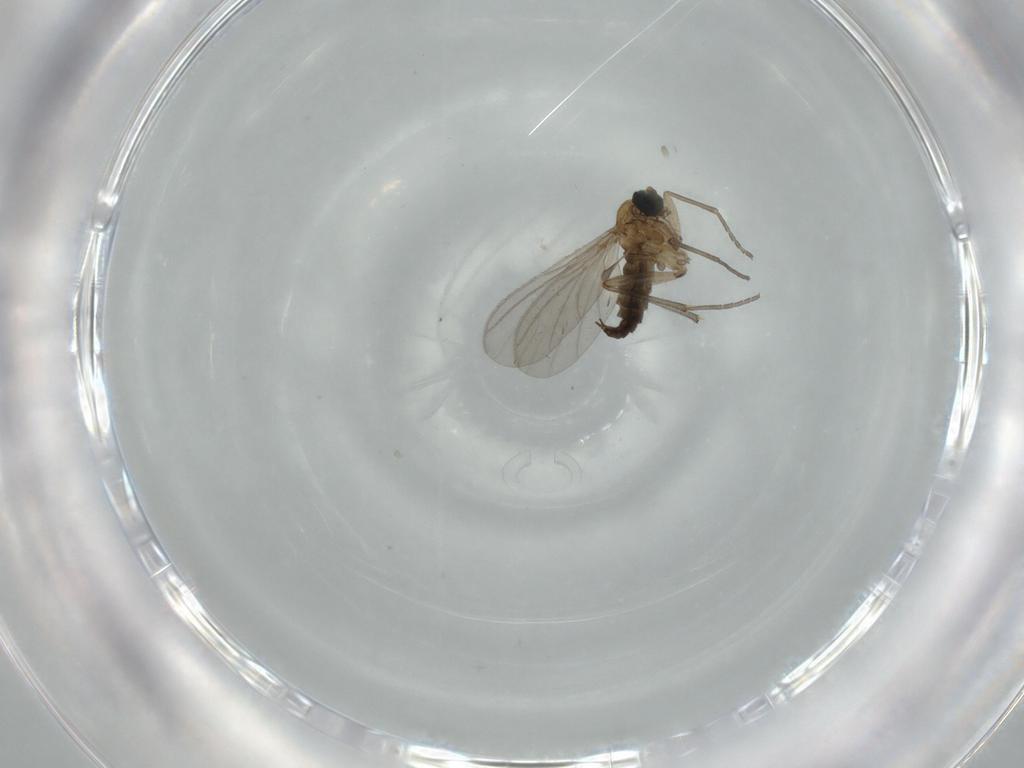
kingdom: Animalia
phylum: Arthropoda
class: Insecta
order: Diptera
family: Sciaridae
